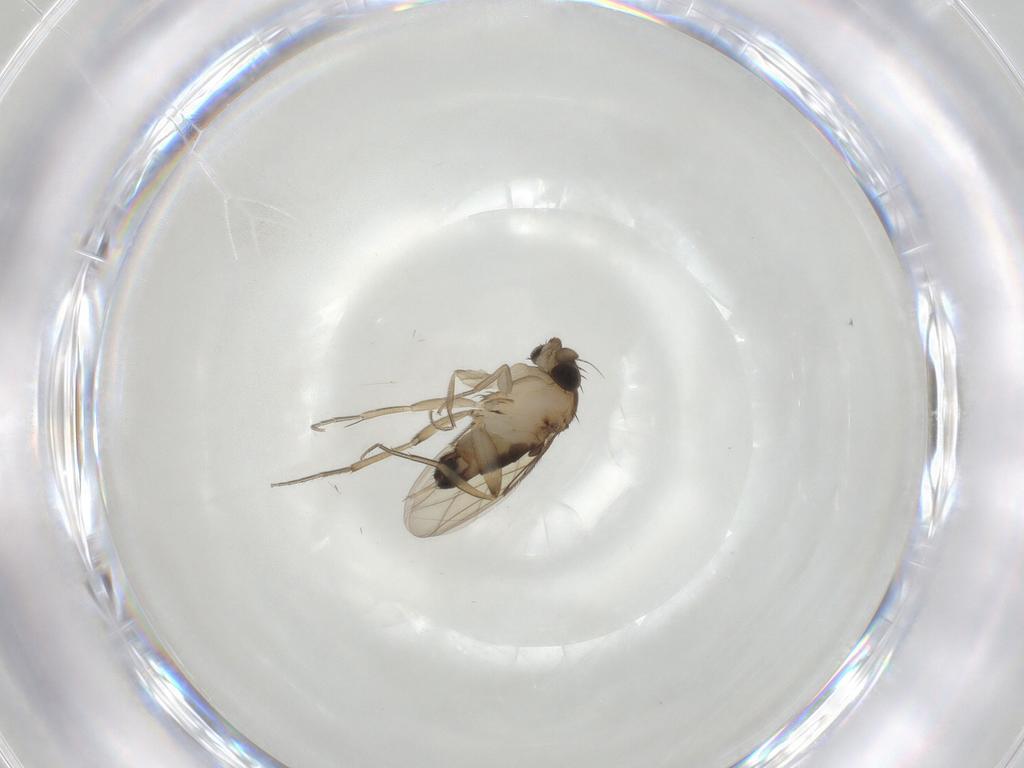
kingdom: Animalia
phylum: Arthropoda
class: Insecta
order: Diptera
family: Phoridae
